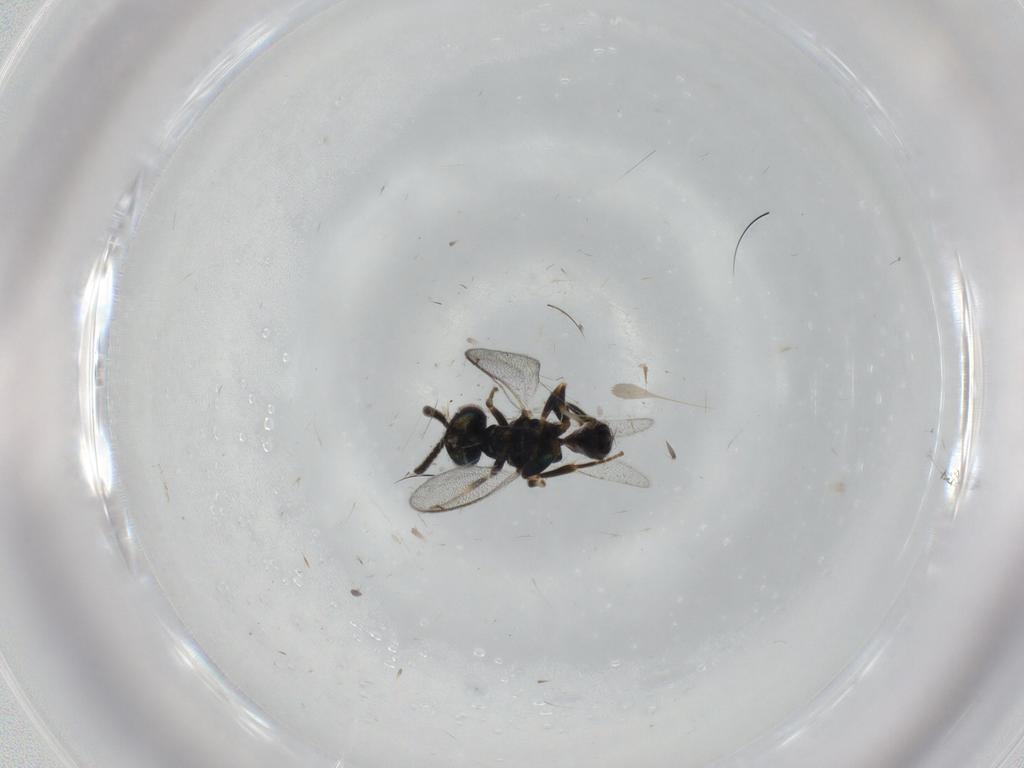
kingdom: Animalia
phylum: Arthropoda
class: Insecta
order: Hymenoptera
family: Cleonyminae
